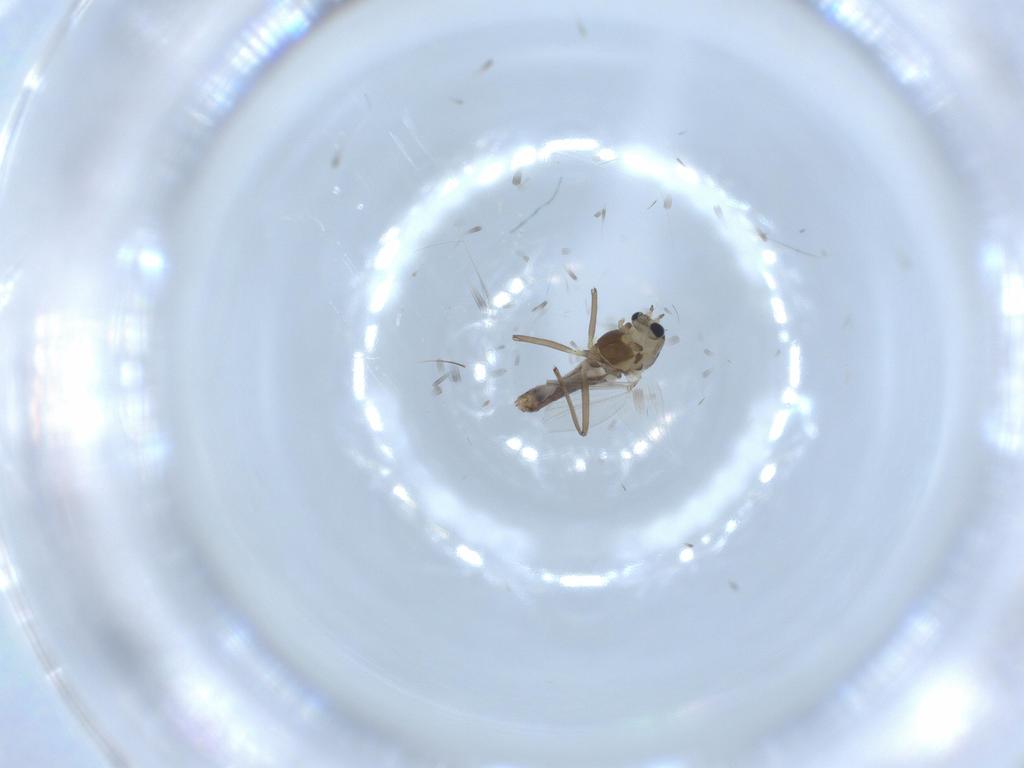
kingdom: Animalia
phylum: Arthropoda
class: Insecta
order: Diptera
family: Chironomidae
